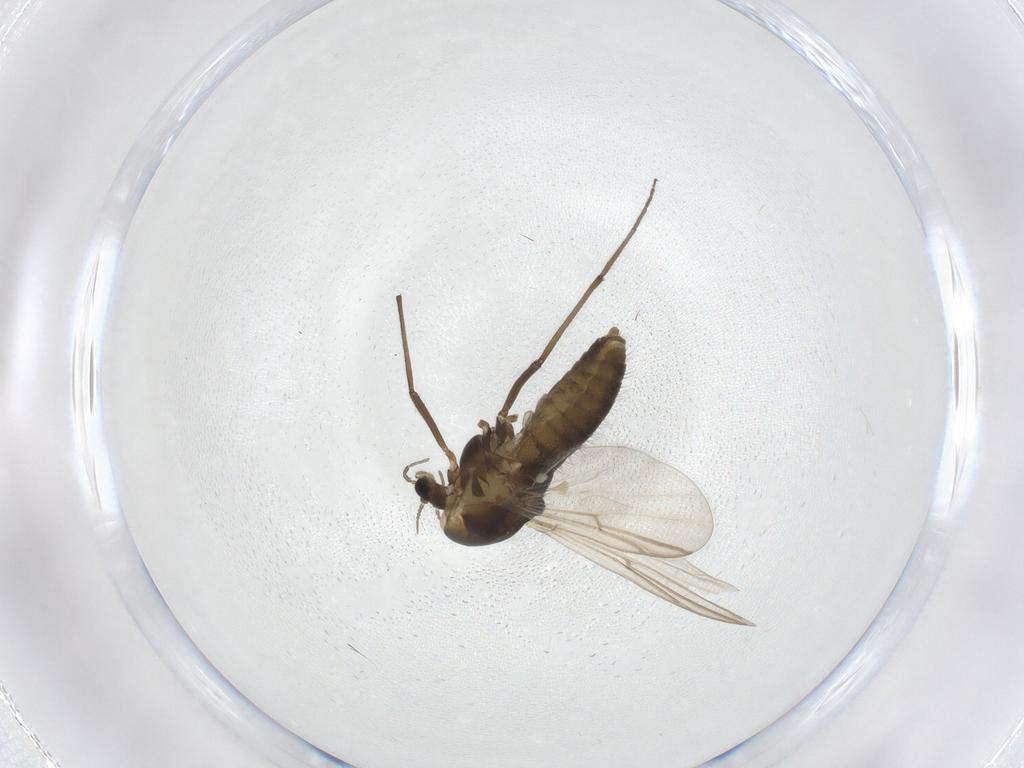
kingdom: Animalia
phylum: Arthropoda
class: Insecta
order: Diptera
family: Chironomidae
